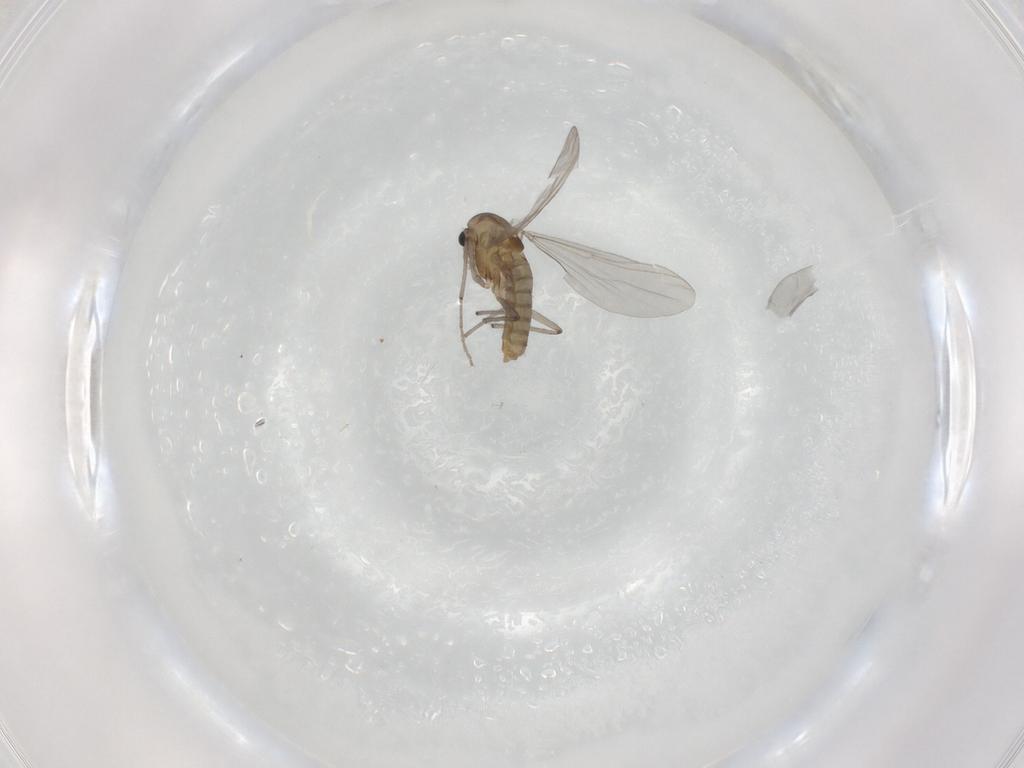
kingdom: Animalia
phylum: Arthropoda
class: Insecta
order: Diptera
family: Chironomidae
